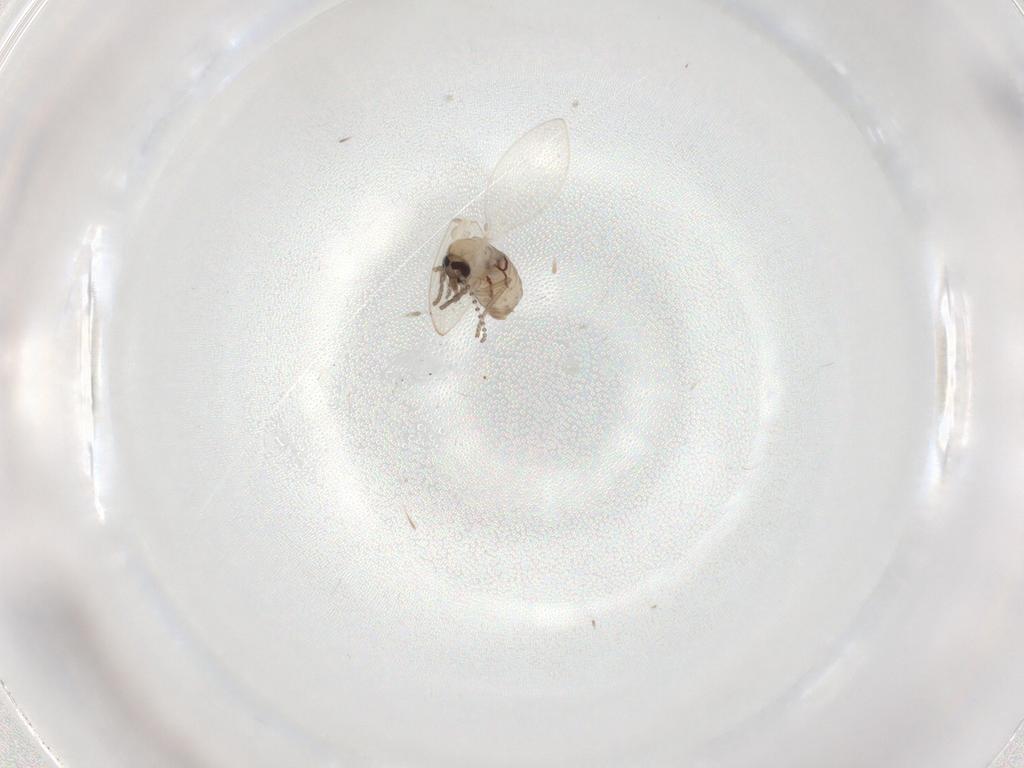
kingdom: Animalia
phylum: Arthropoda
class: Insecta
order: Diptera
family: Psychodidae
